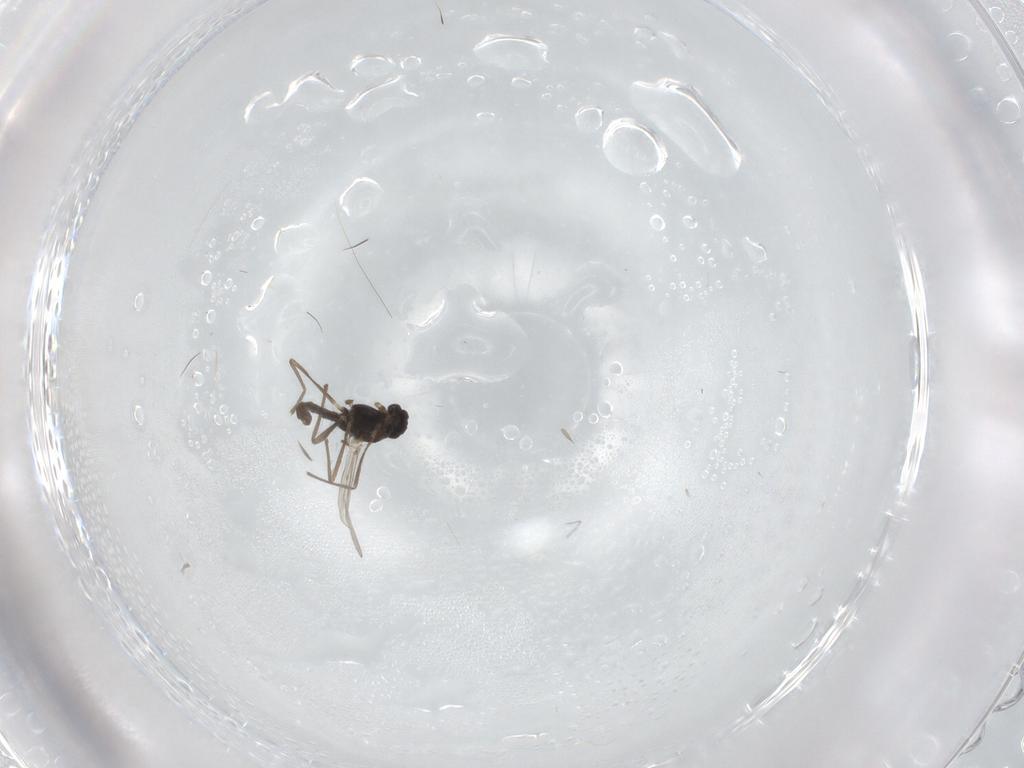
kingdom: Animalia
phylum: Arthropoda
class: Insecta
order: Diptera
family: Chironomidae
